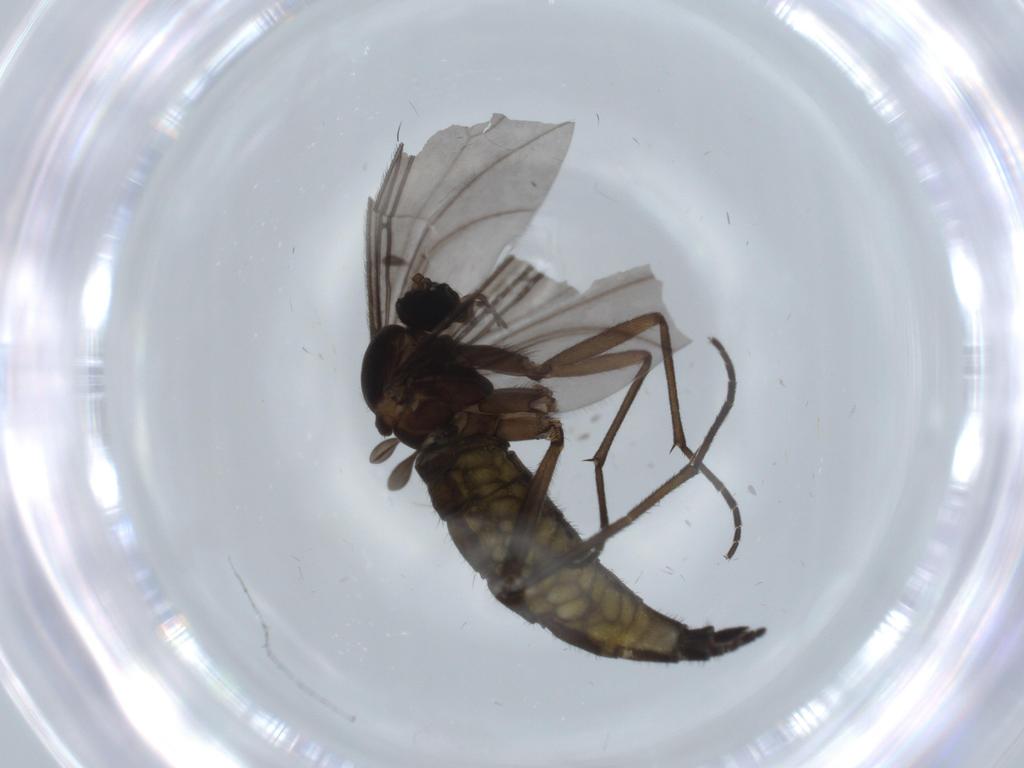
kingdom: Animalia
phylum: Arthropoda
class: Insecta
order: Diptera
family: Sciaridae
